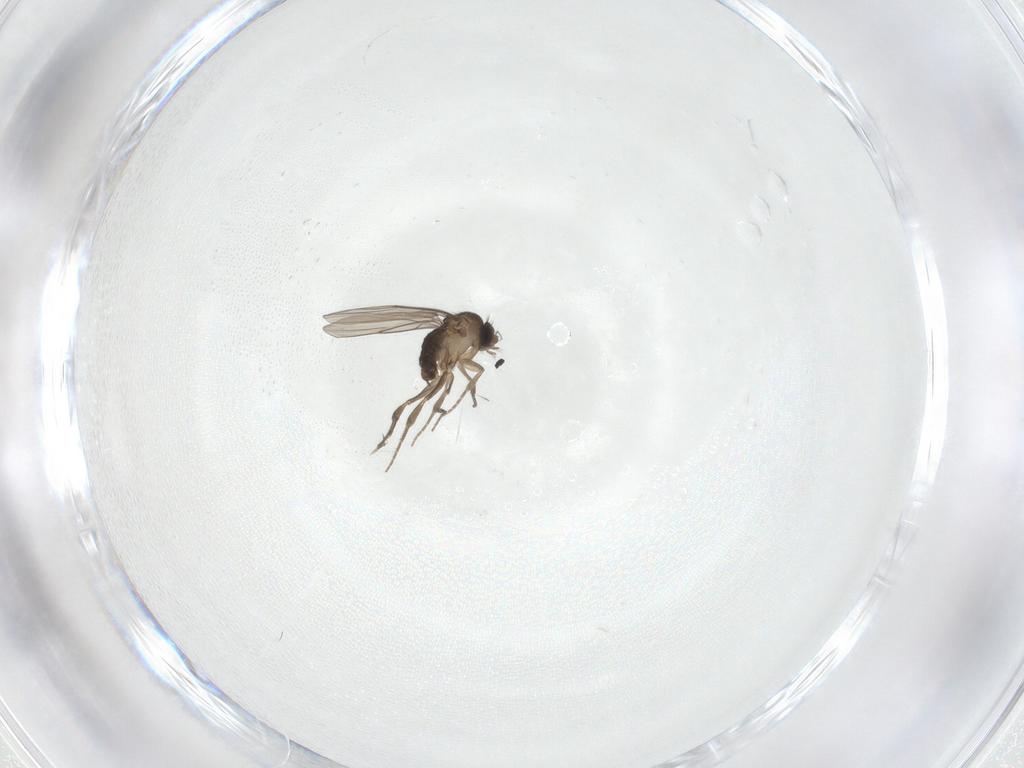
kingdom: Animalia
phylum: Arthropoda
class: Insecta
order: Diptera
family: Phoridae
